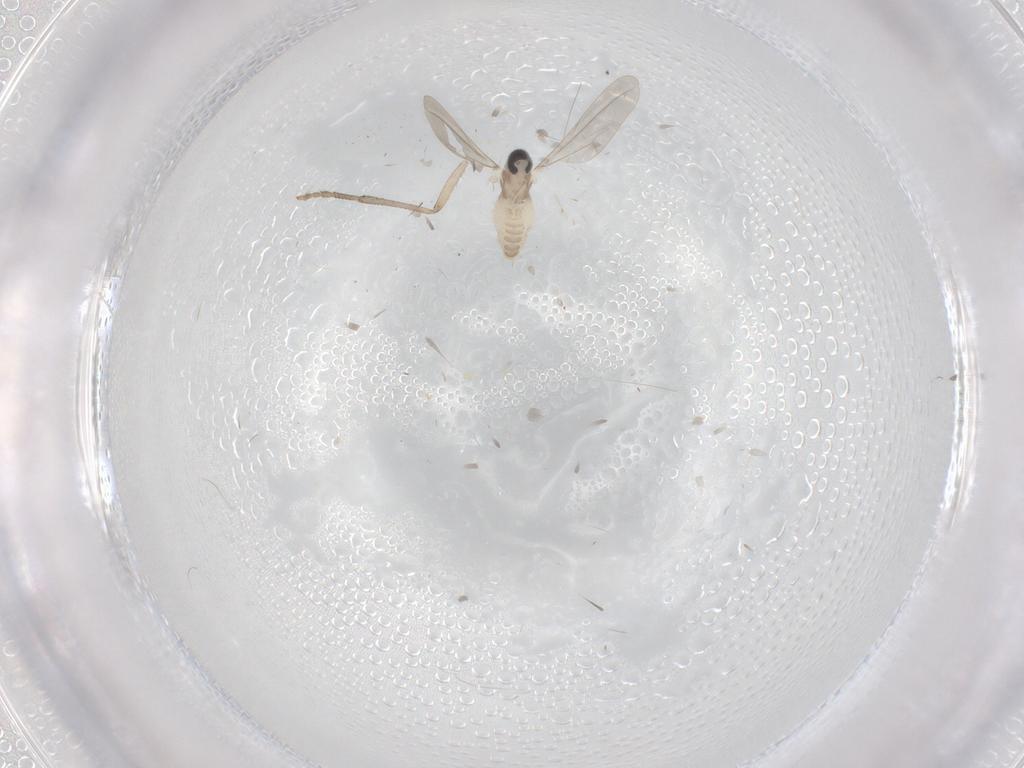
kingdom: Animalia
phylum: Arthropoda
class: Insecta
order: Diptera
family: Cecidomyiidae
